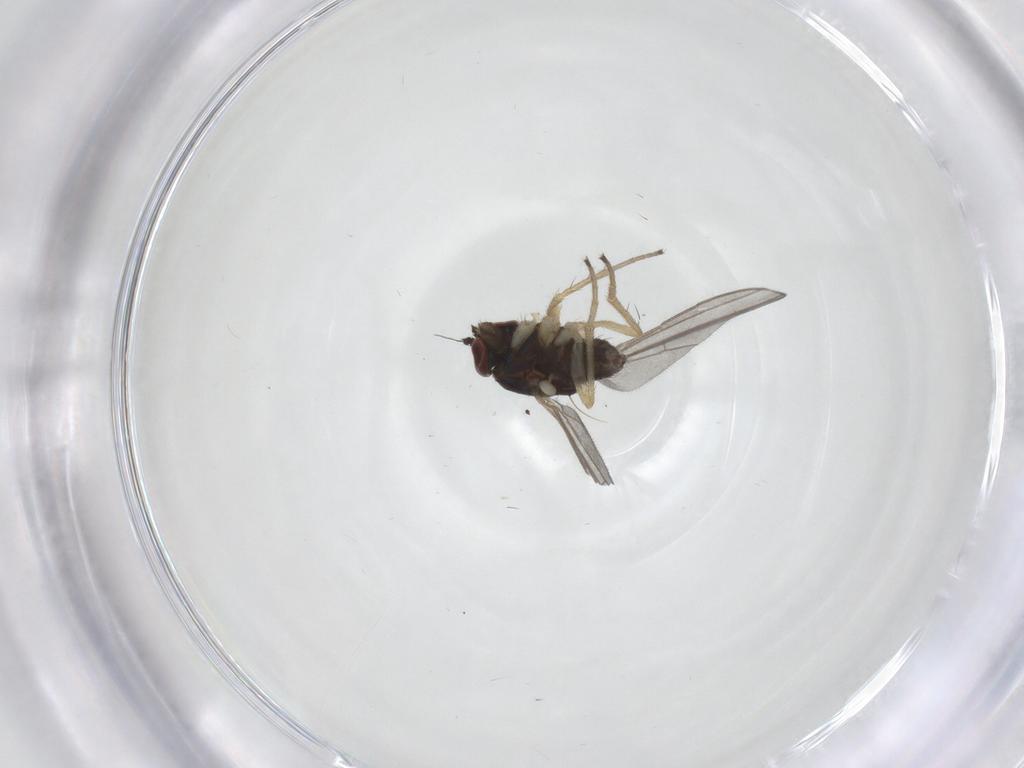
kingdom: Animalia
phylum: Arthropoda
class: Insecta
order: Diptera
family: Dolichopodidae
